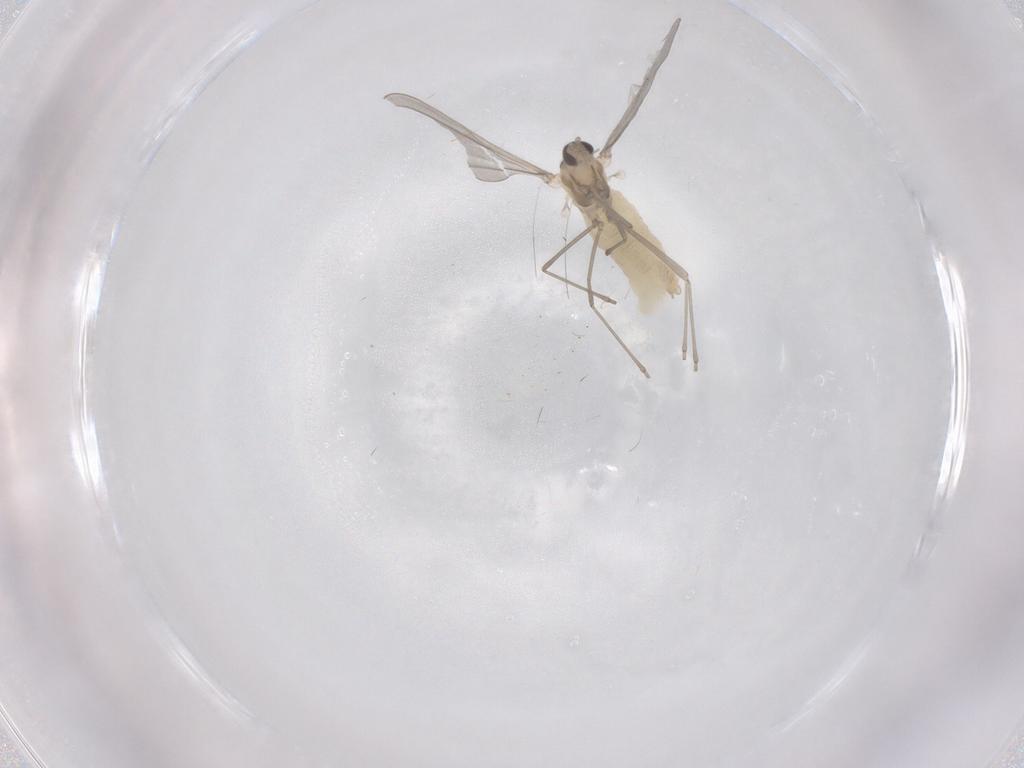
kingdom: Animalia
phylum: Arthropoda
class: Insecta
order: Diptera
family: Cecidomyiidae
